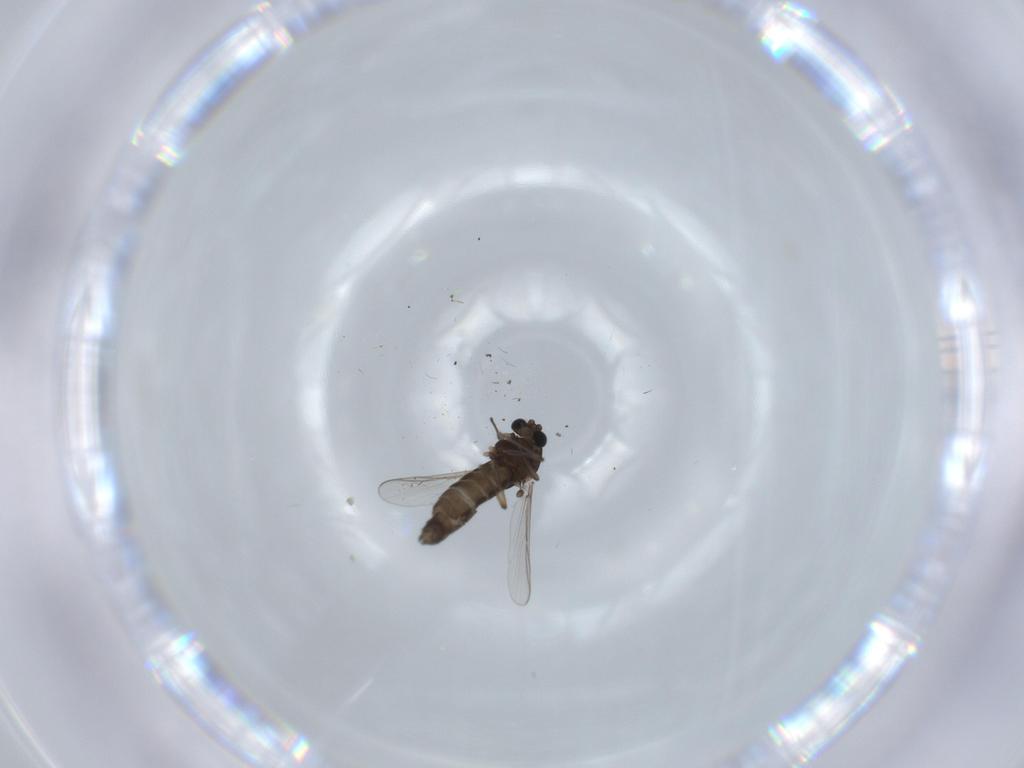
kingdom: Animalia
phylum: Arthropoda
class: Insecta
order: Diptera
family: Chironomidae
